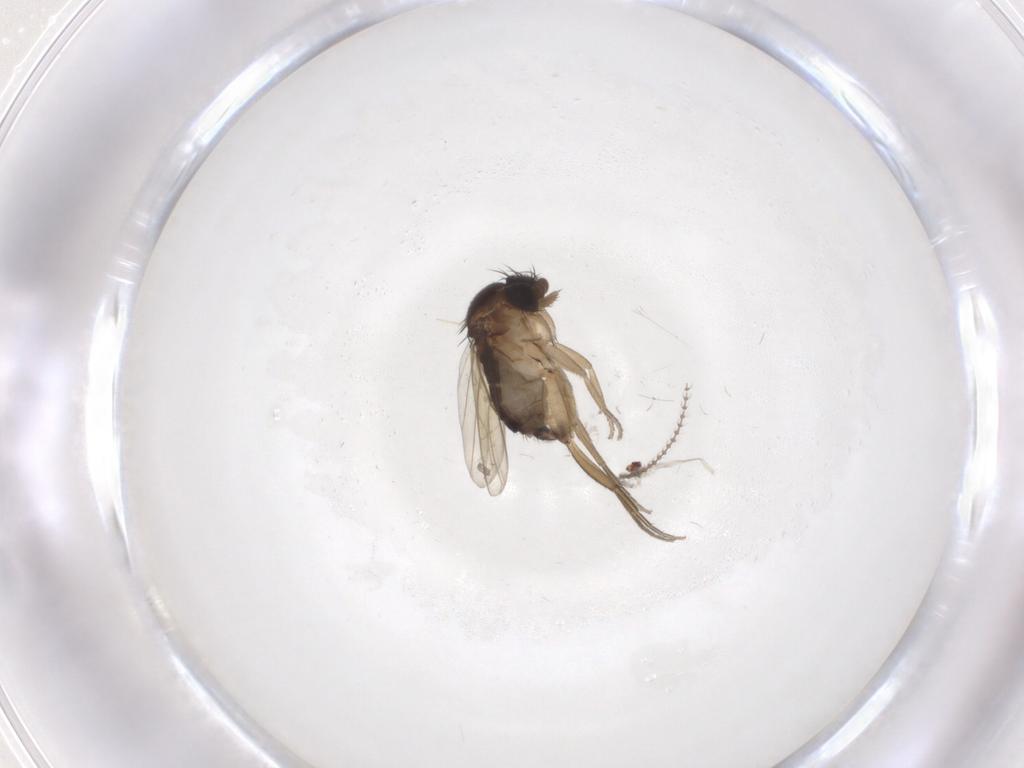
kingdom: Animalia
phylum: Arthropoda
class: Insecta
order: Diptera
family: Phoridae
